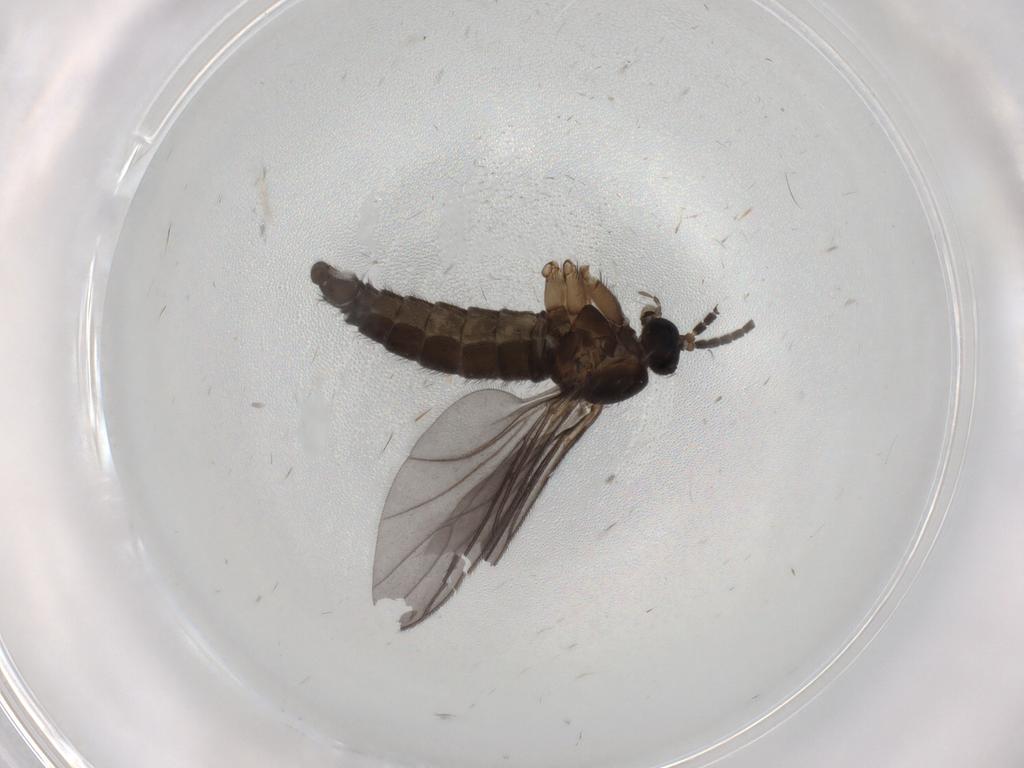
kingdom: Animalia
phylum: Arthropoda
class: Insecta
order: Diptera
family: Sciaridae
